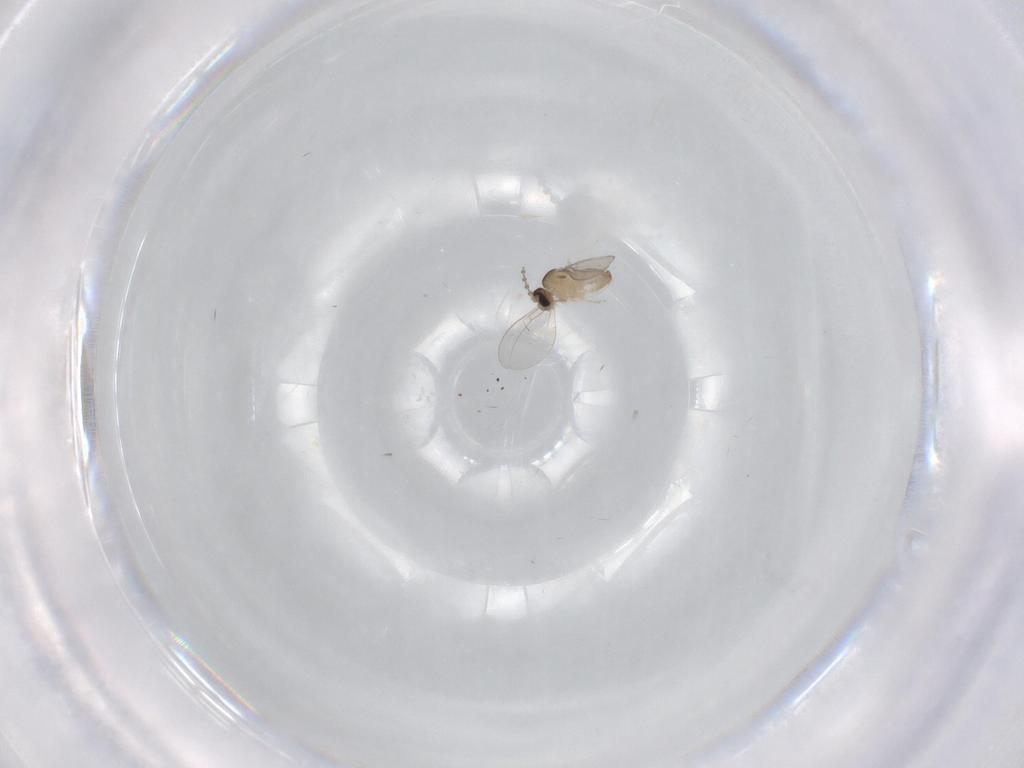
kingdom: Animalia
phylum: Arthropoda
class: Insecta
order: Diptera
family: Cecidomyiidae
